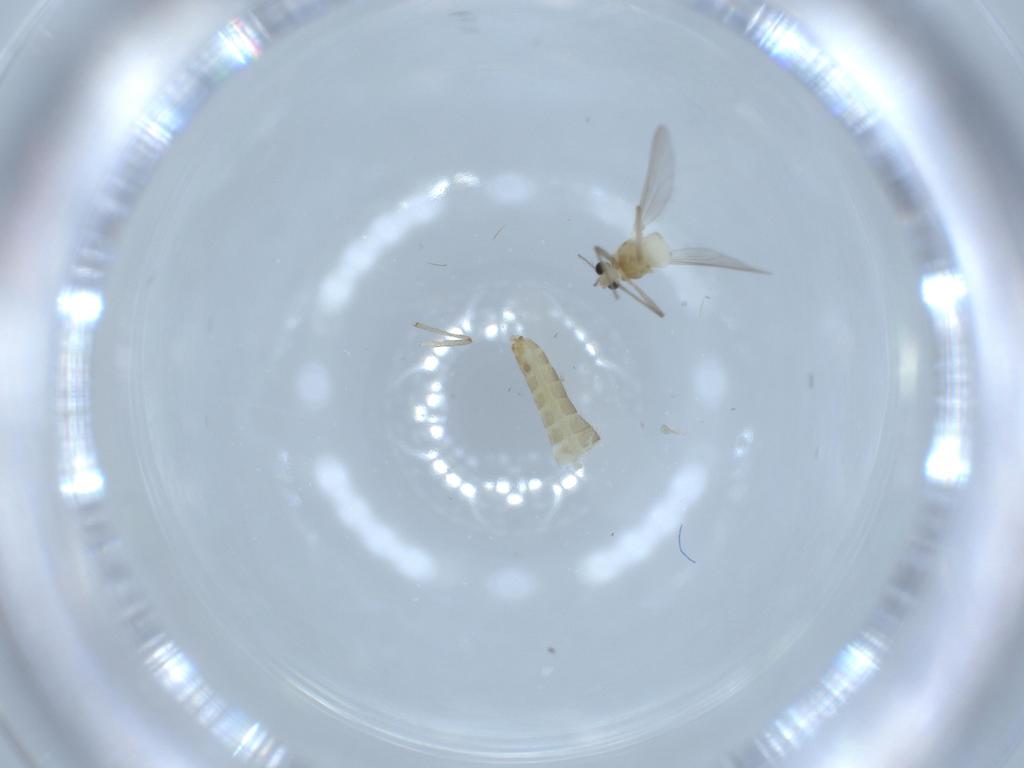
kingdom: Animalia
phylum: Arthropoda
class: Insecta
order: Diptera
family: Chironomidae
